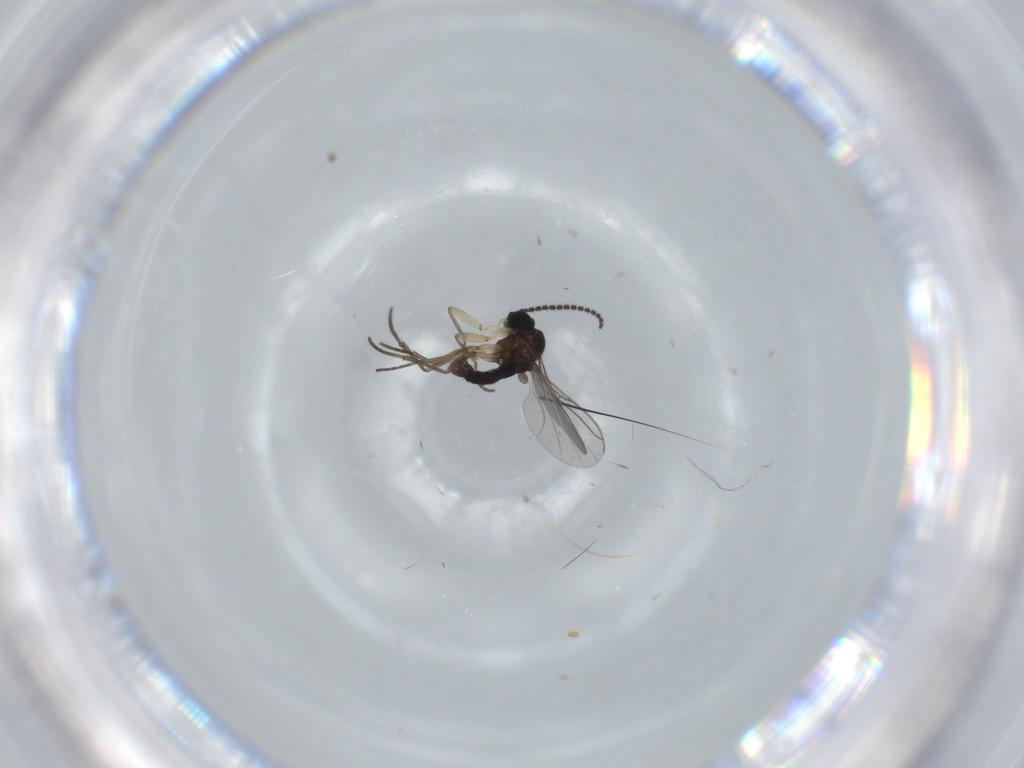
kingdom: Animalia
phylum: Arthropoda
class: Insecta
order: Diptera
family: Sciaridae
